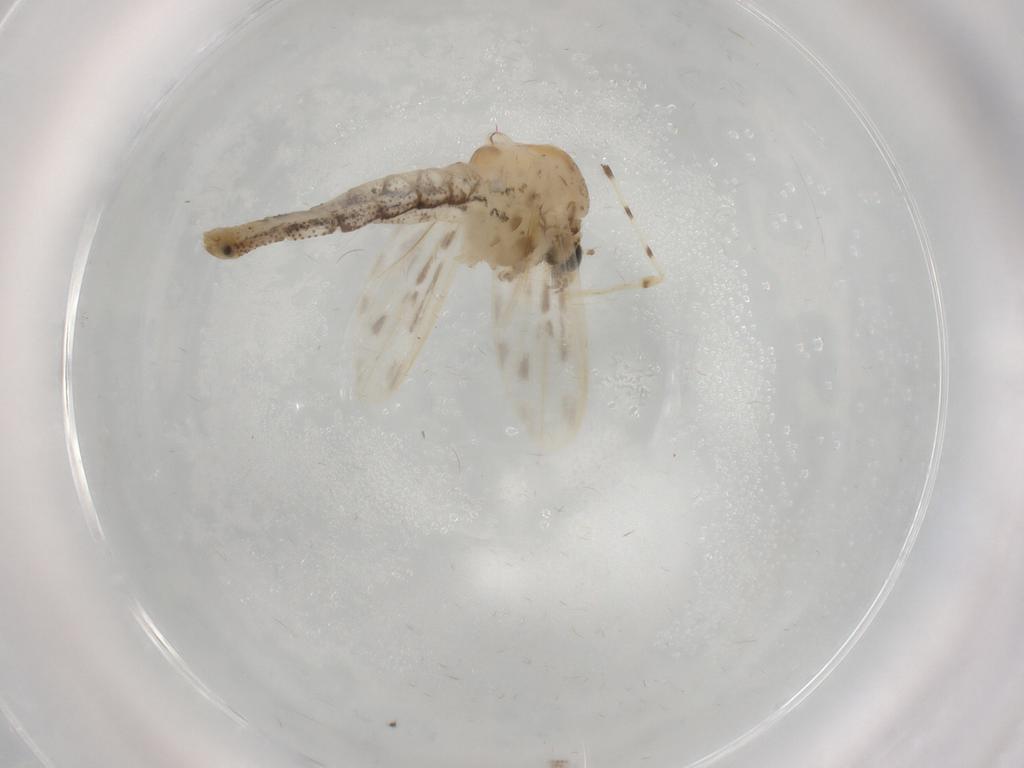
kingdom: Animalia
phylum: Arthropoda
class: Insecta
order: Diptera
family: Chaoboridae
